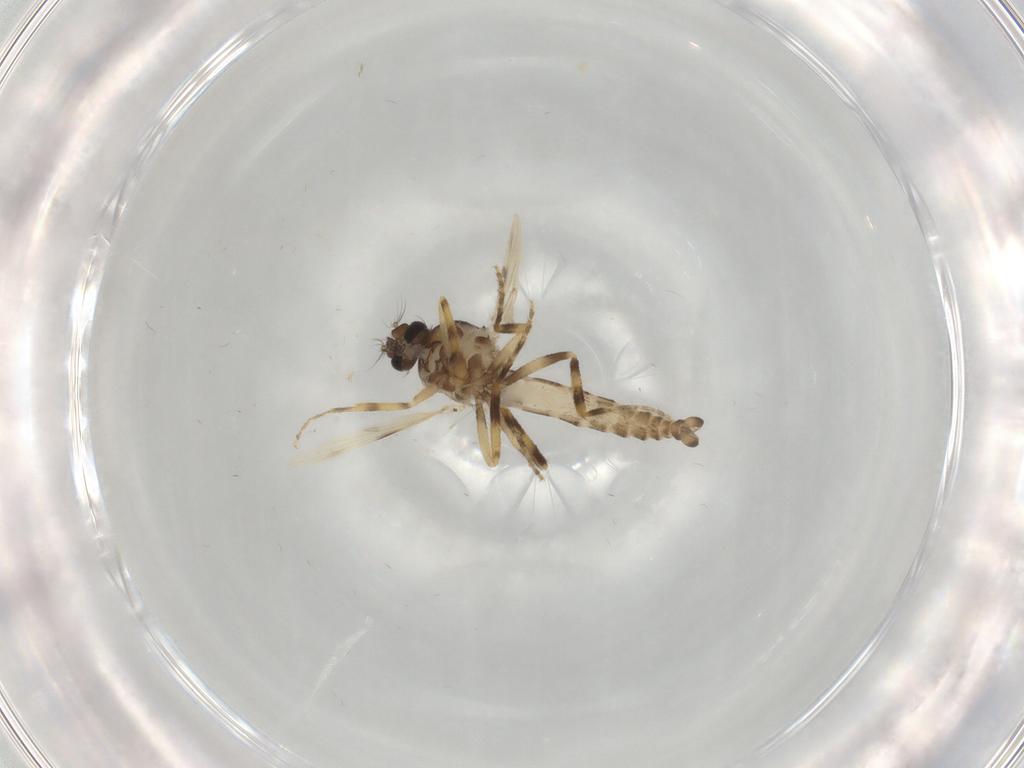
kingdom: Animalia
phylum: Arthropoda
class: Insecta
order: Diptera
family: Ceratopogonidae
